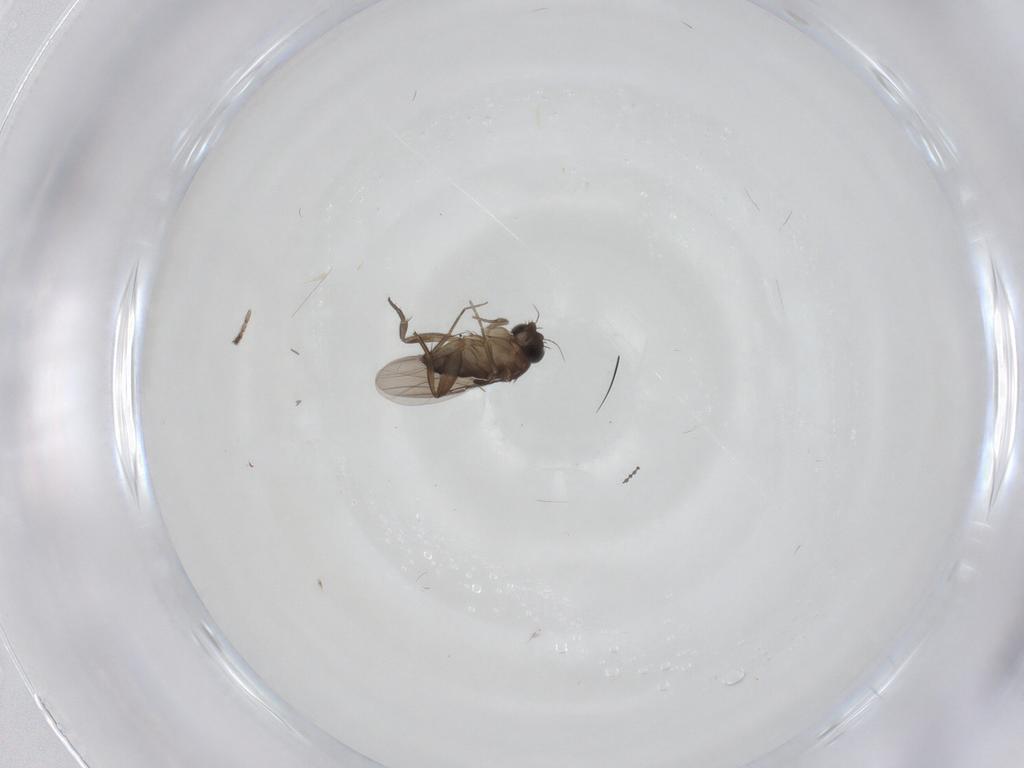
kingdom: Animalia
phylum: Arthropoda
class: Insecta
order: Diptera
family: Phoridae
